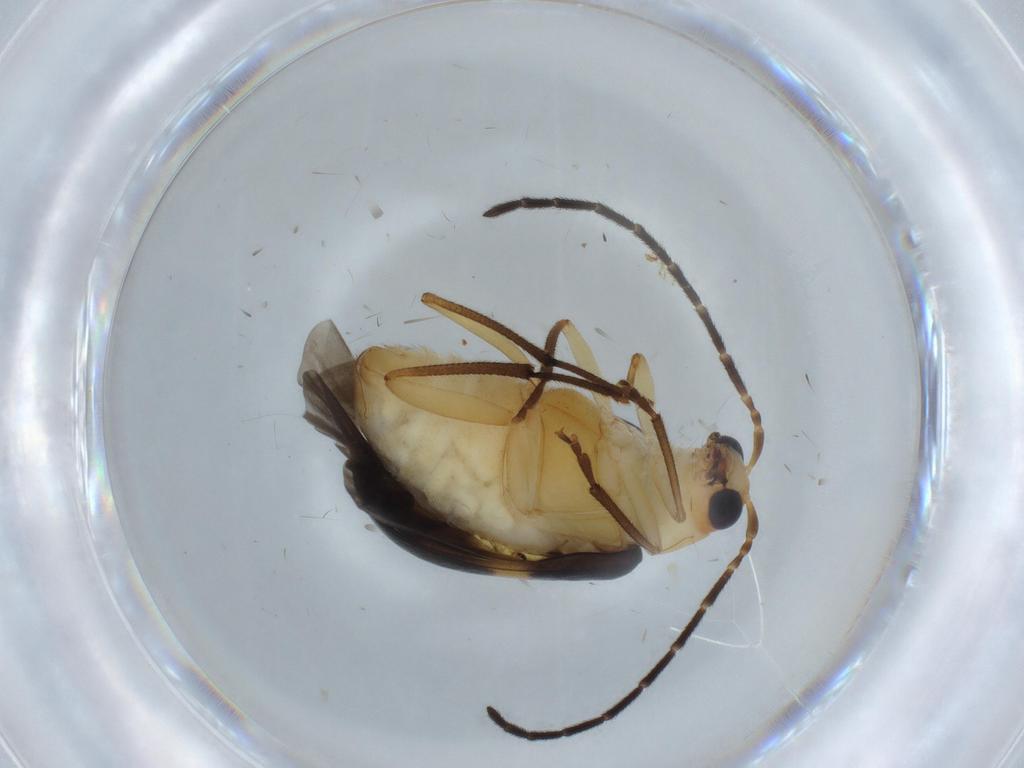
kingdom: Animalia
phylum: Arthropoda
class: Insecta
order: Coleoptera
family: Chrysomelidae
